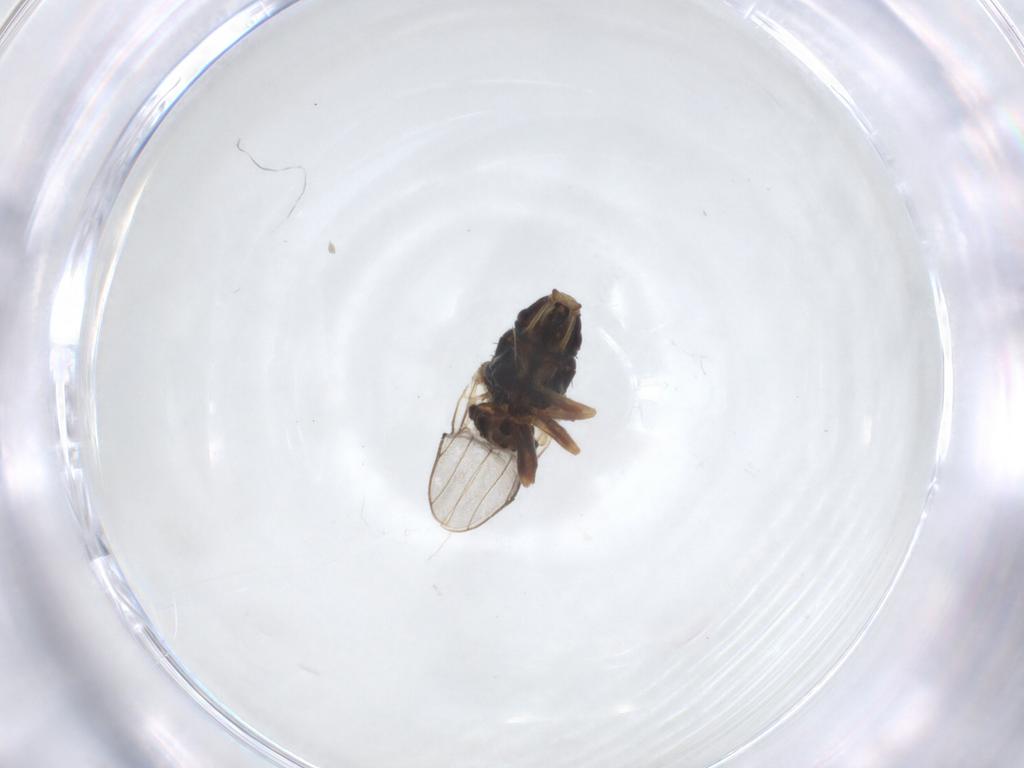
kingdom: Animalia
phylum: Arthropoda
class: Insecta
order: Diptera
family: Chloropidae
